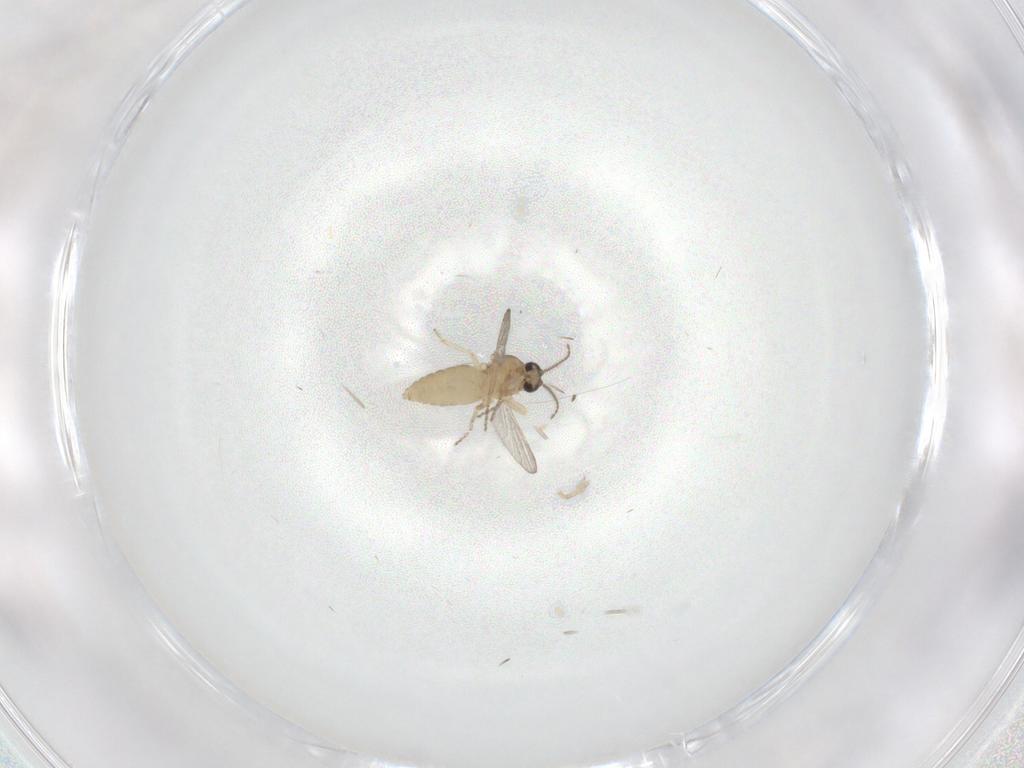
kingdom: Animalia
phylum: Arthropoda
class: Insecta
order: Diptera
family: Ceratopogonidae
